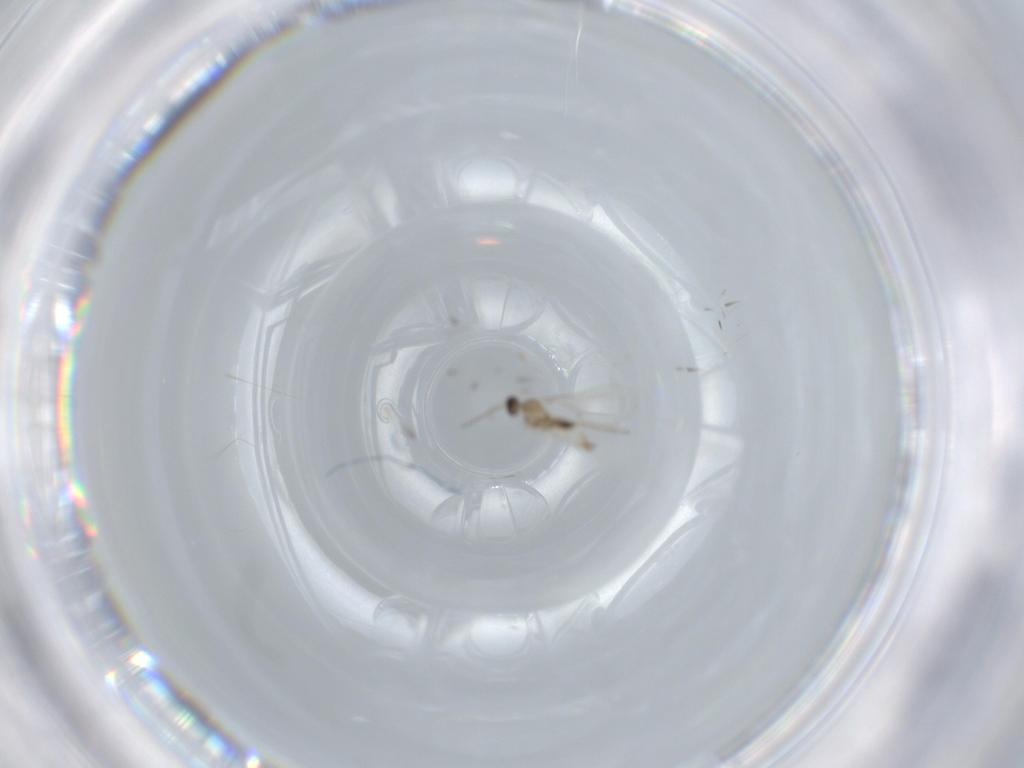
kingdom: Animalia
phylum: Arthropoda
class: Insecta
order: Diptera
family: Cecidomyiidae
